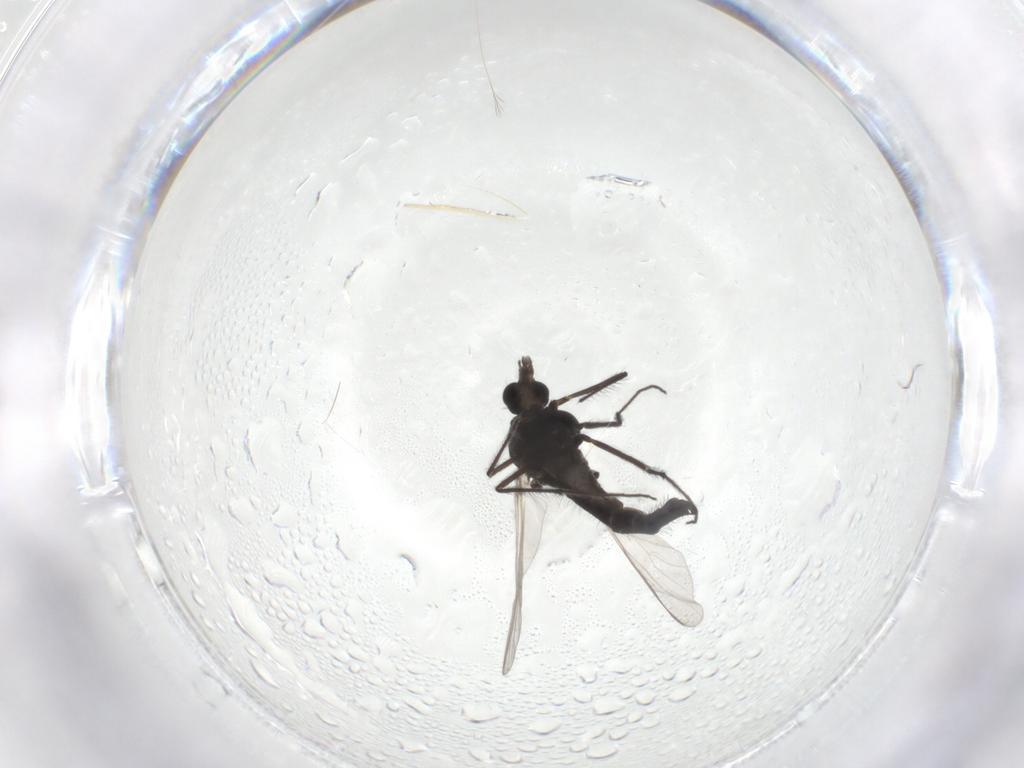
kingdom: Animalia
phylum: Arthropoda
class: Insecta
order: Diptera
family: Chironomidae
